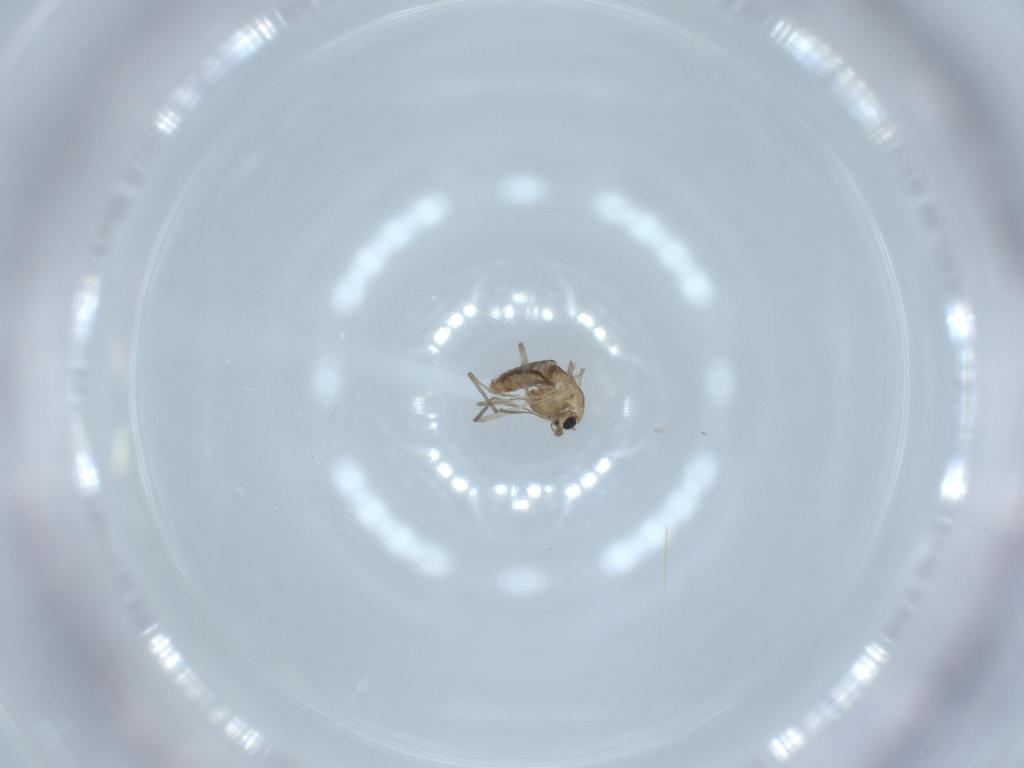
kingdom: Animalia
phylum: Arthropoda
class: Insecta
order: Diptera
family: Chironomidae
